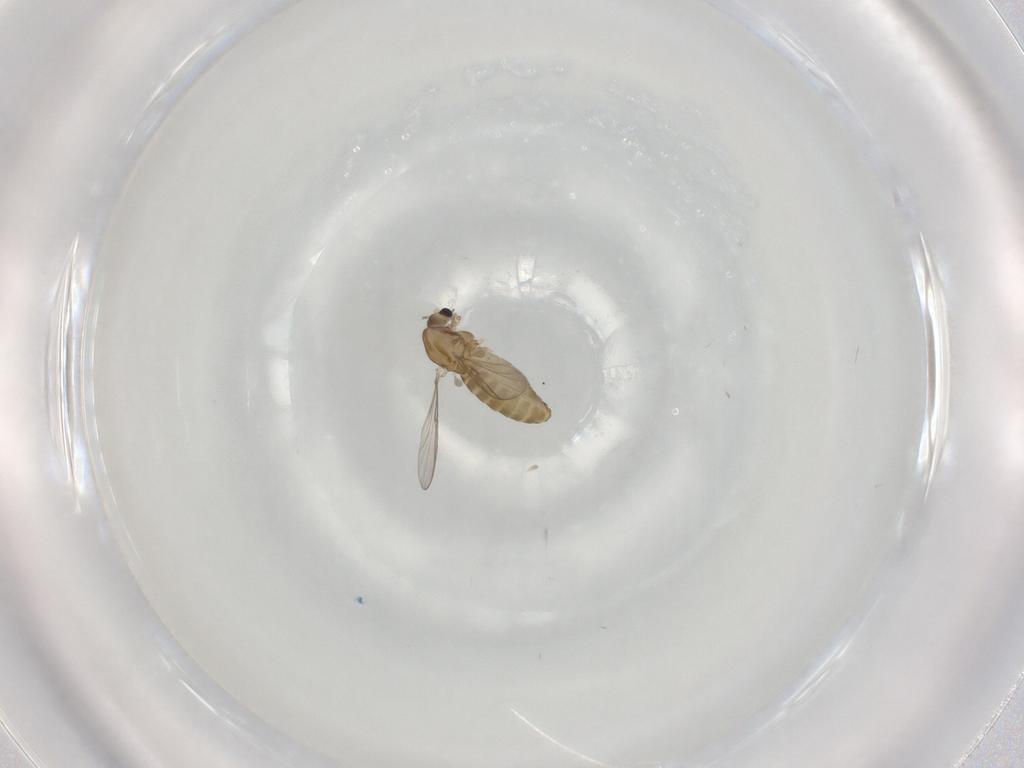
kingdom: Animalia
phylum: Arthropoda
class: Insecta
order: Diptera
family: Chironomidae
